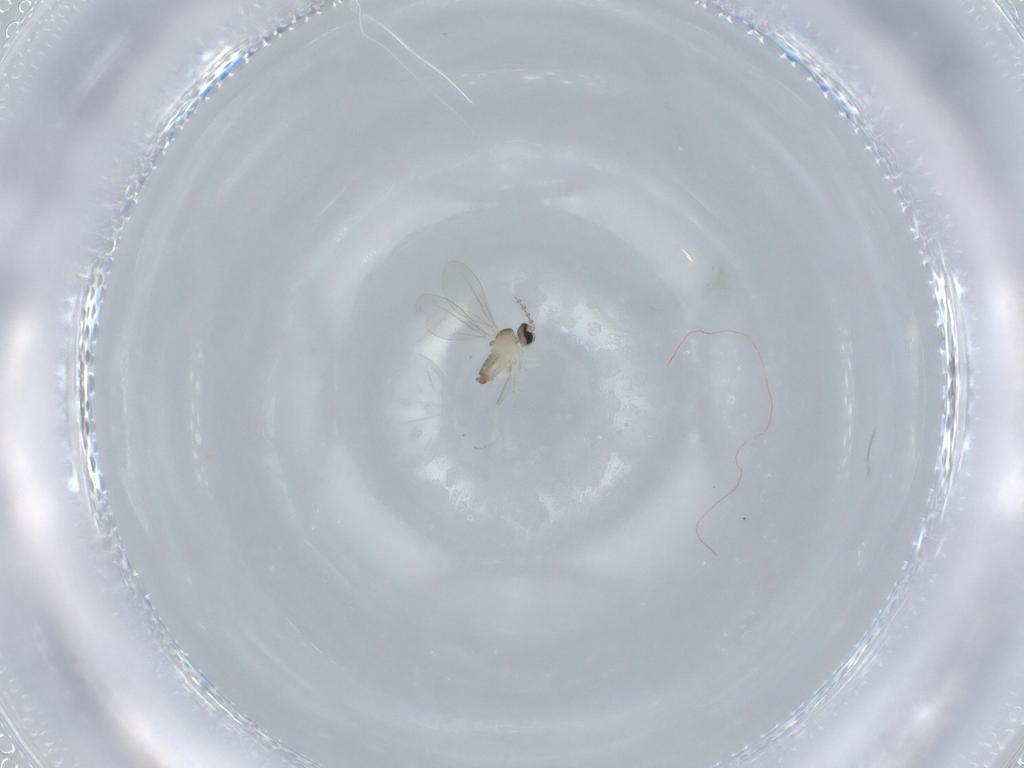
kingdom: Animalia
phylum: Arthropoda
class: Insecta
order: Diptera
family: Cecidomyiidae
